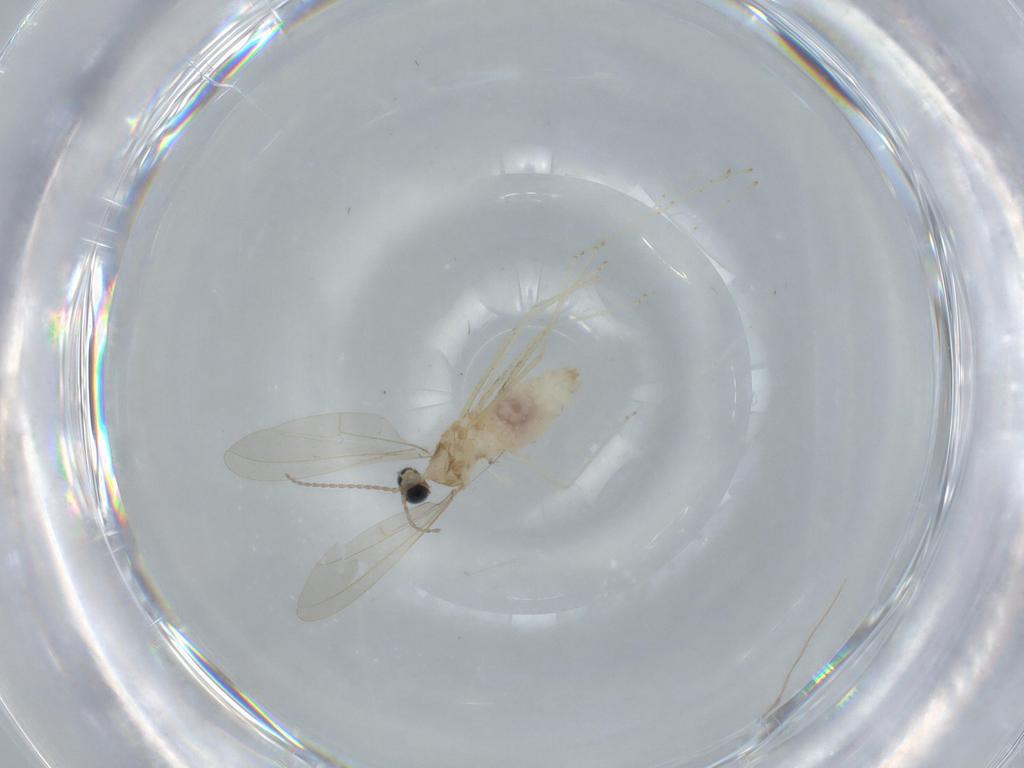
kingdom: Animalia
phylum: Arthropoda
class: Insecta
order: Diptera
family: Cecidomyiidae
